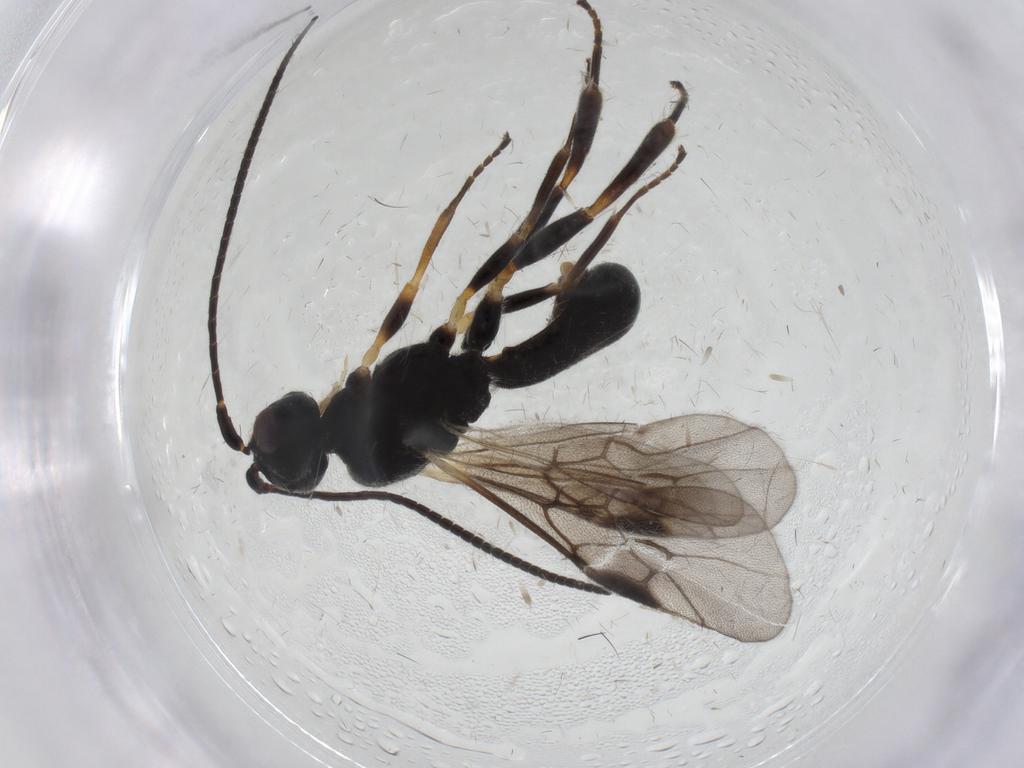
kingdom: Animalia
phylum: Arthropoda
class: Insecta
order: Hymenoptera
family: Braconidae
